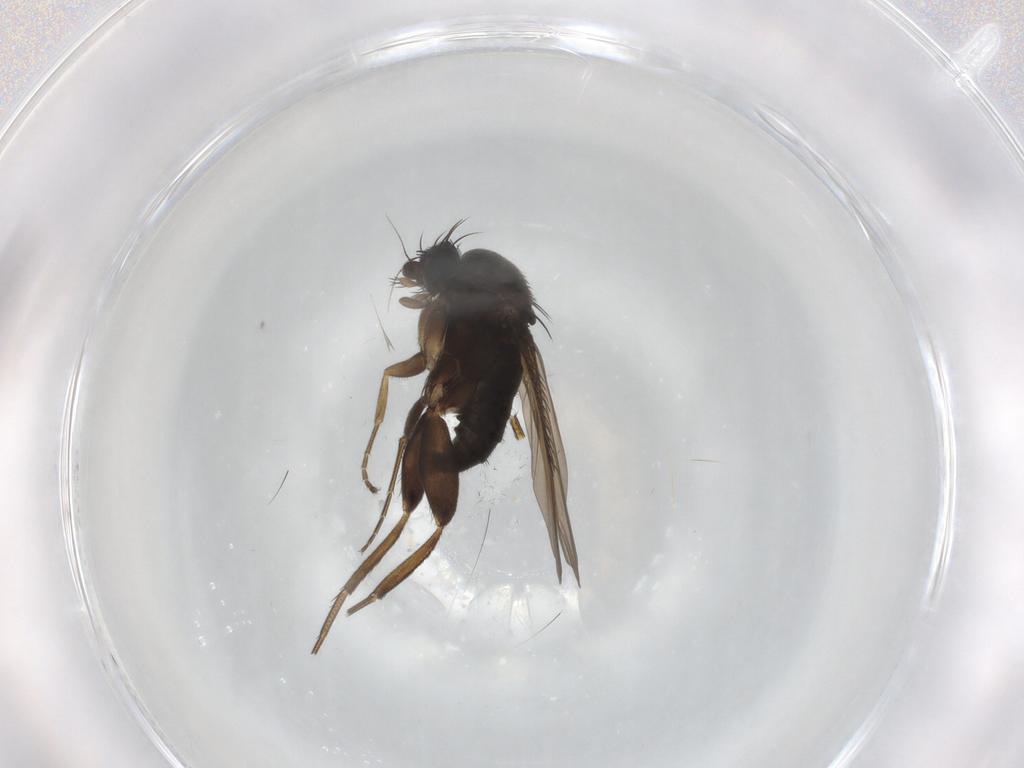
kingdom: Animalia
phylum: Arthropoda
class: Insecta
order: Diptera
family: Phoridae
